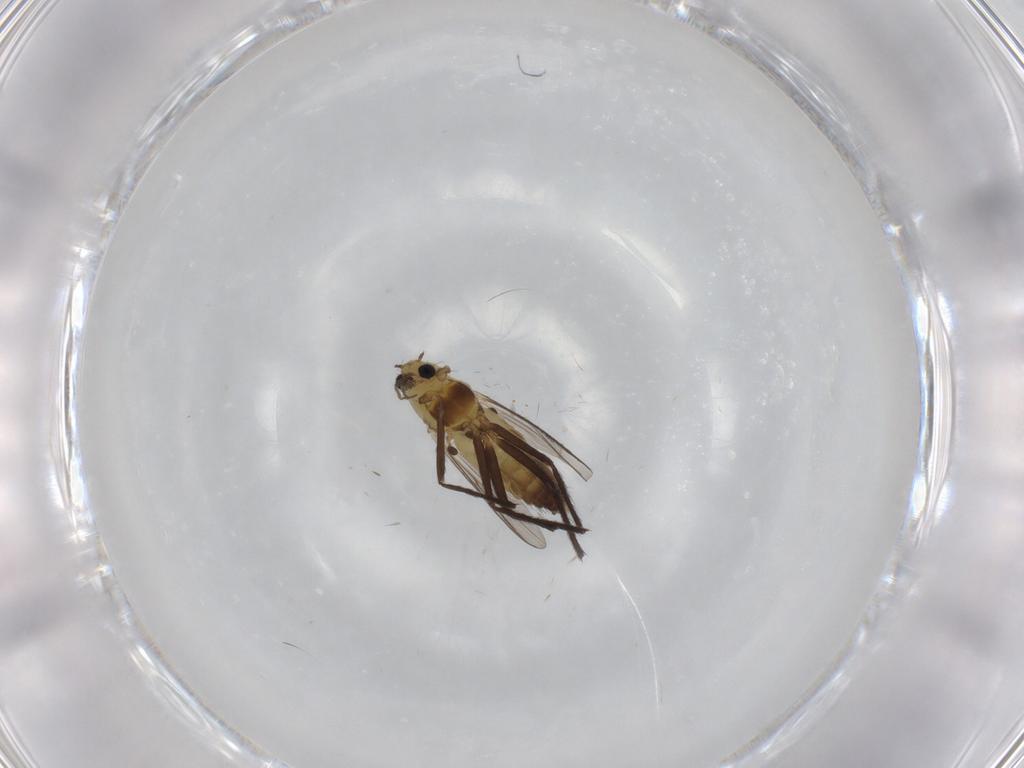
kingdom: Animalia
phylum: Arthropoda
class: Insecta
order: Diptera
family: Chironomidae
